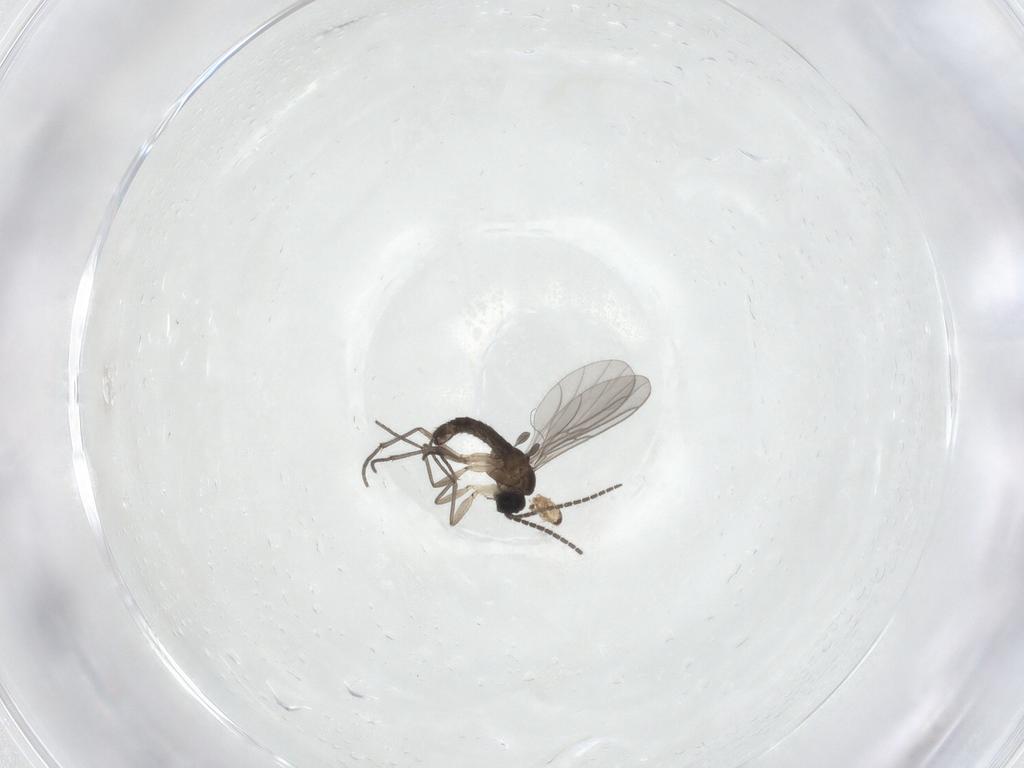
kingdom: Animalia
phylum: Arthropoda
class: Insecta
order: Diptera
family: Sciaridae
